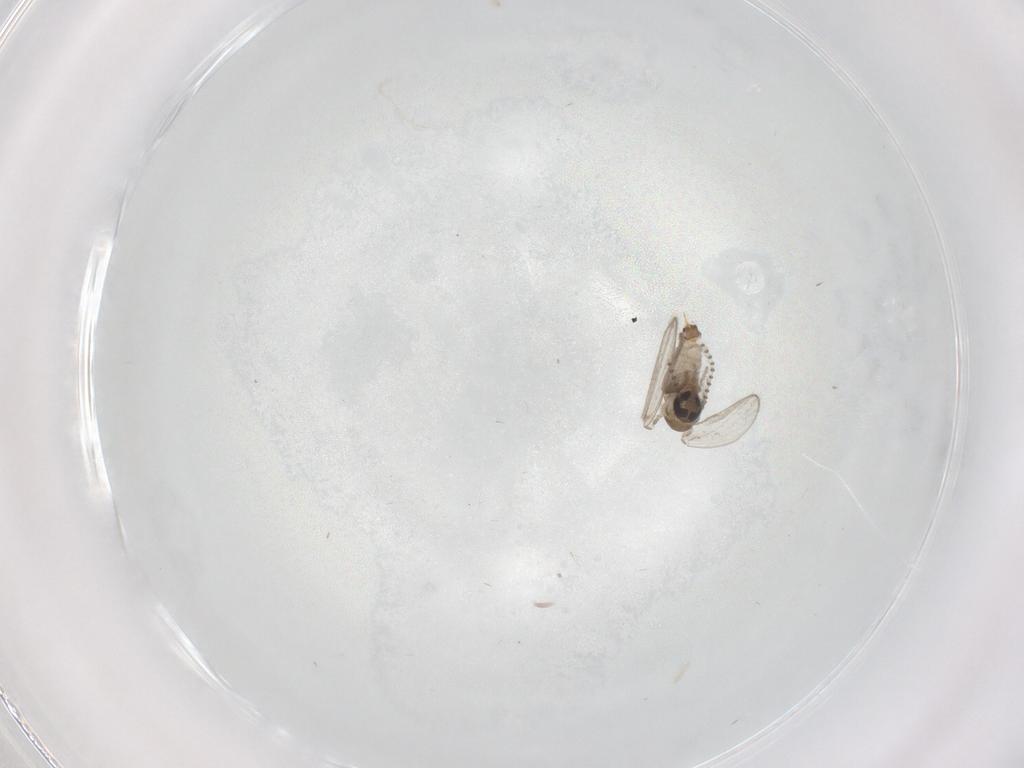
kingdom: Animalia
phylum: Arthropoda
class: Insecta
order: Diptera
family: Psychodidae
